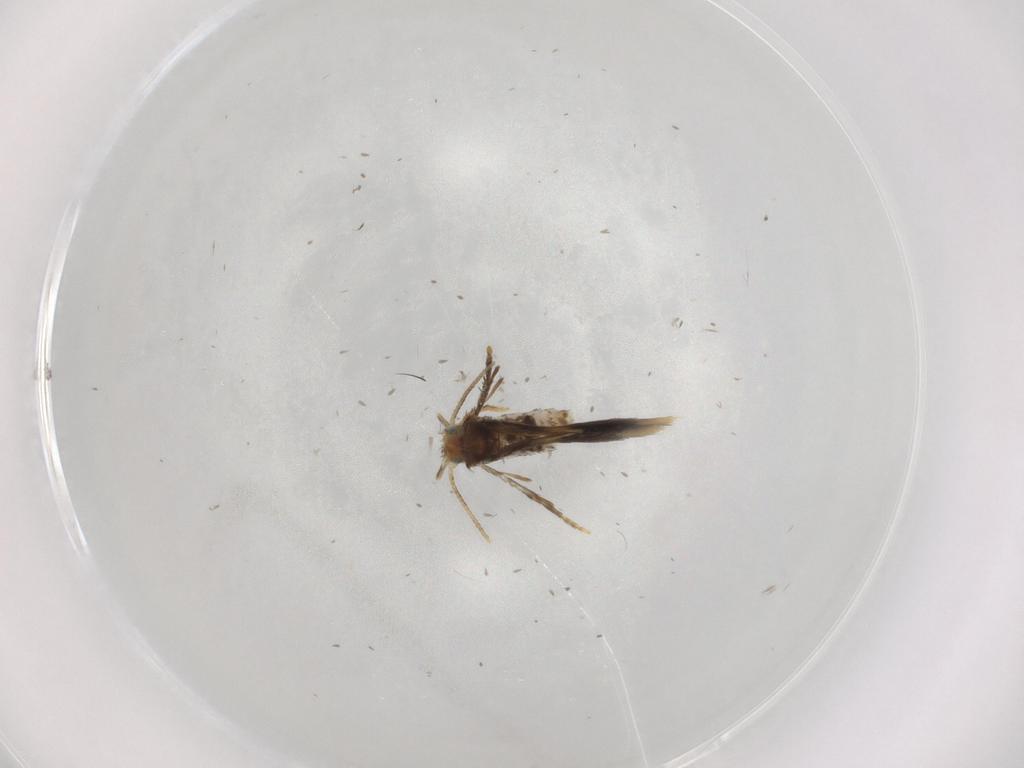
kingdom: Animalia
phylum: Arthropoda
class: Insecta
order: Lepidoptera
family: Copromorphidae
